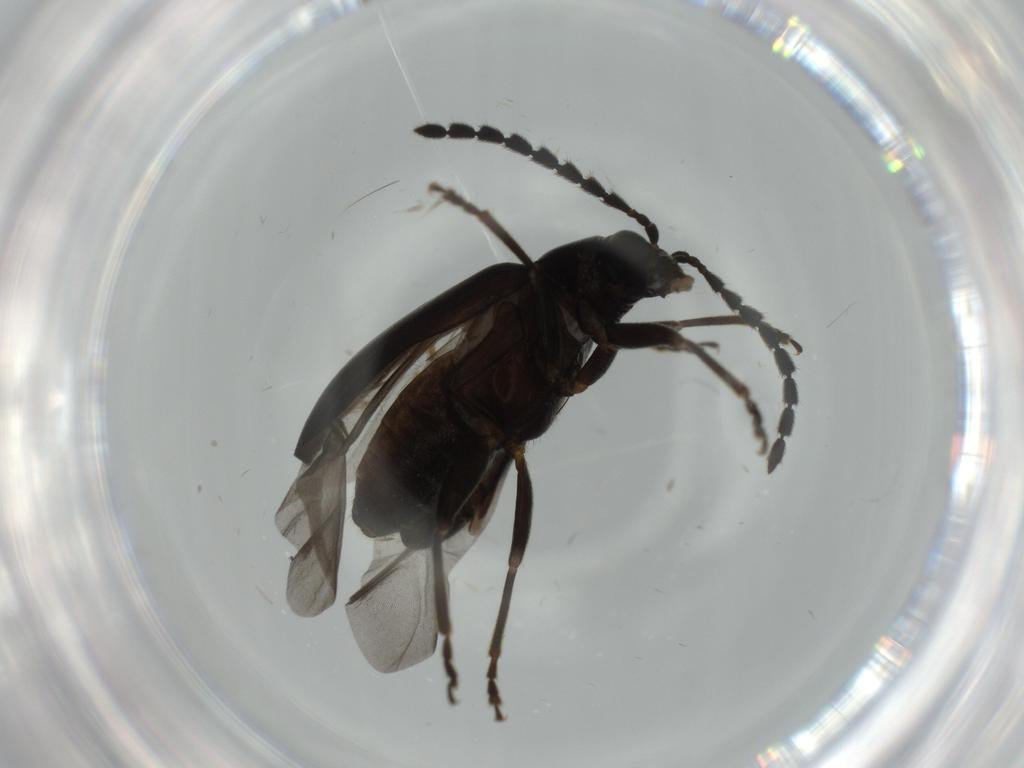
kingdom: Animalia
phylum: Arthropoda
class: Insecta
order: Coleoptera
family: Chrysomelidae
